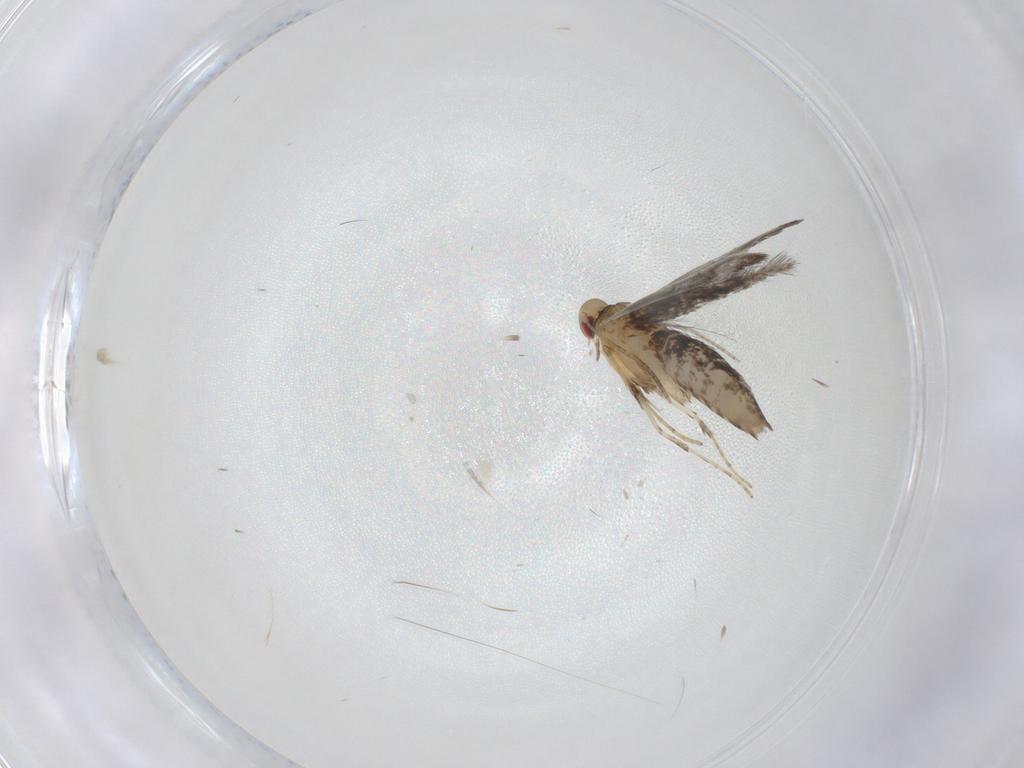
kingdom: Animalia
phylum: Arthropoda
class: Insecta
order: Lepidoptera
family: Gracillariidae
